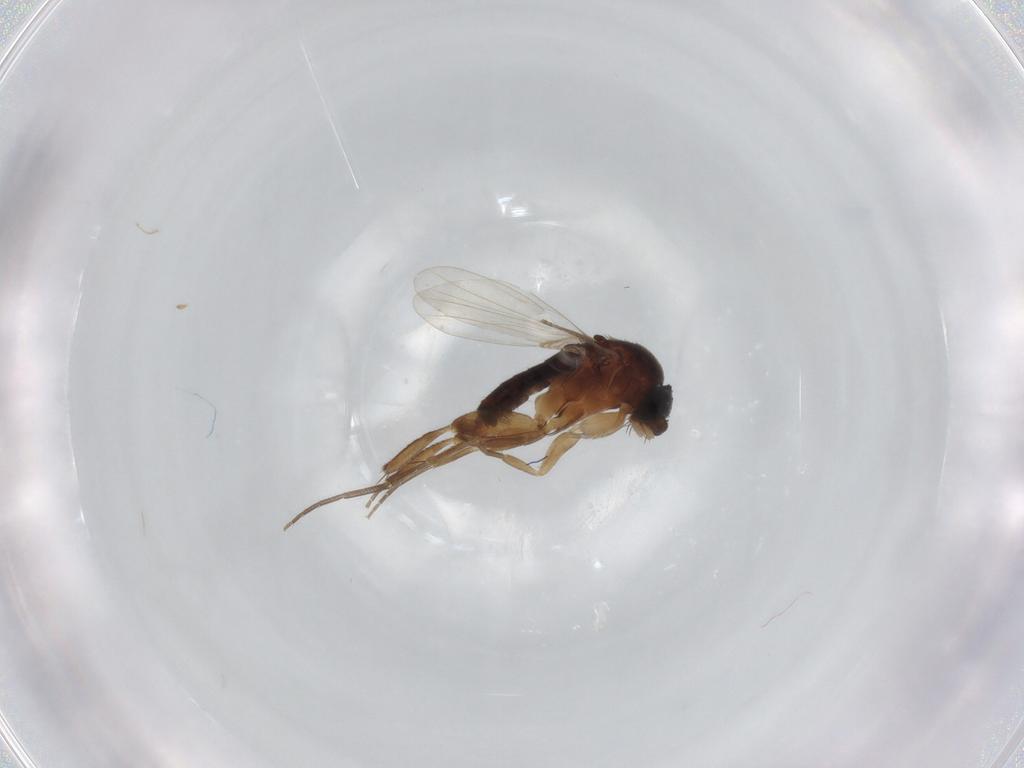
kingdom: Animalia
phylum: Arthropoda
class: Insecta
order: Diptera
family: Phoridae
